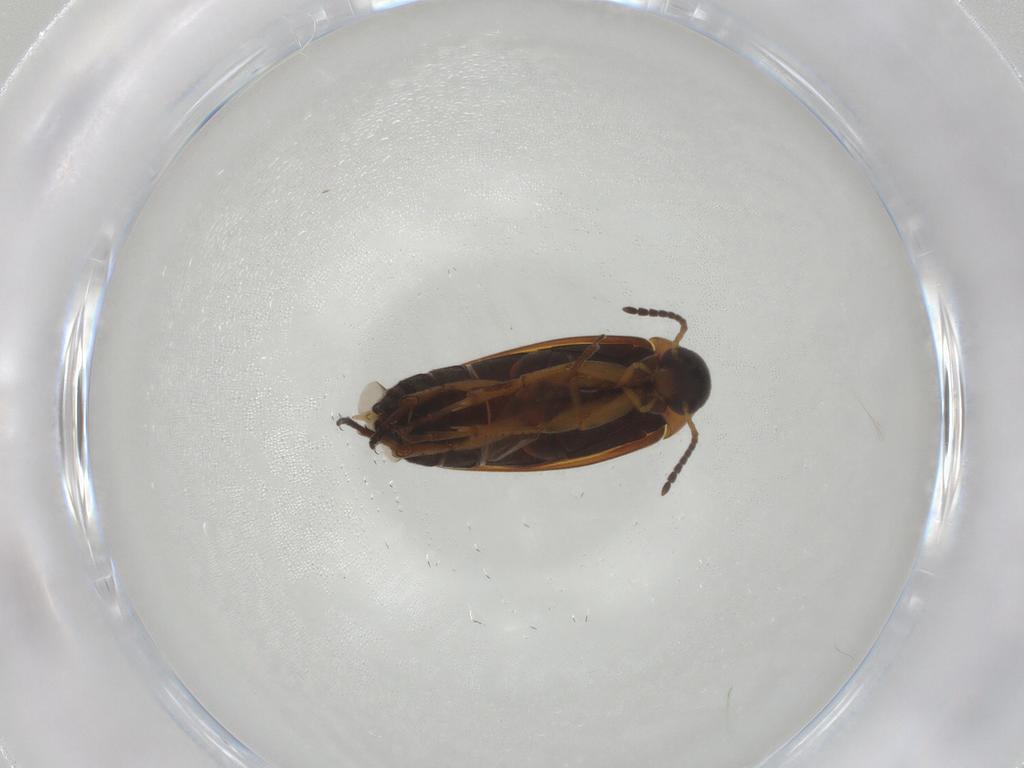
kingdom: Animalia
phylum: Arthropoda
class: Insecta
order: Coleoptera
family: Scraptiidae
